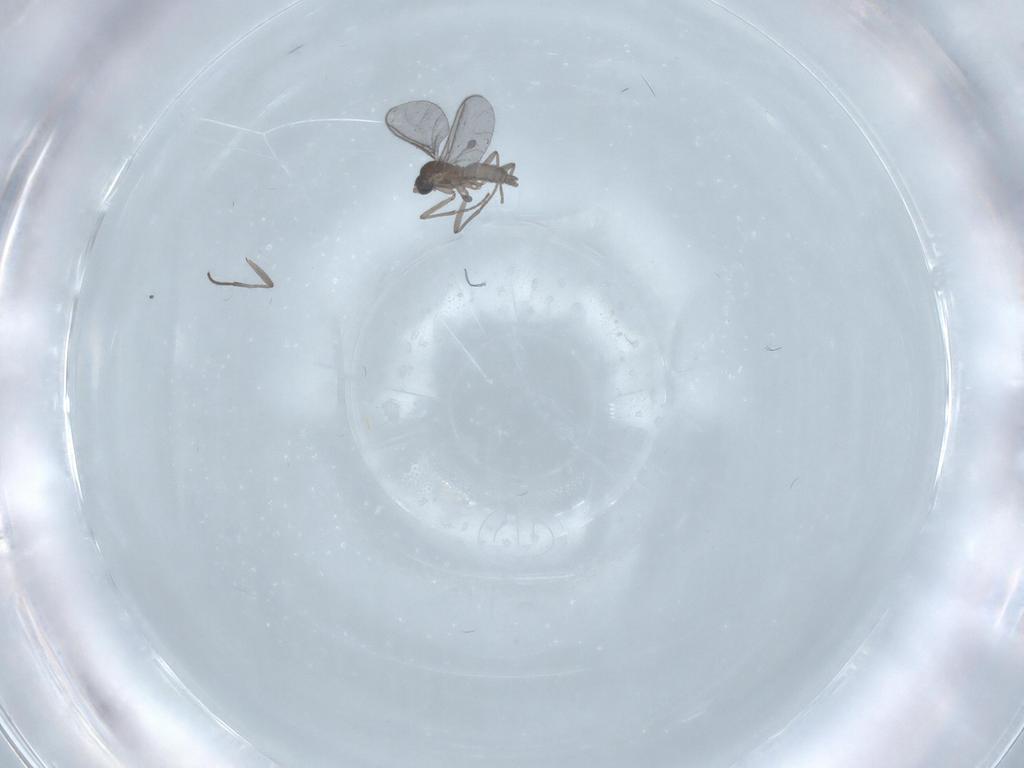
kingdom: Animalia
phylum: Arthropoda
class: Insecta
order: Diptera
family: Sciaridae
